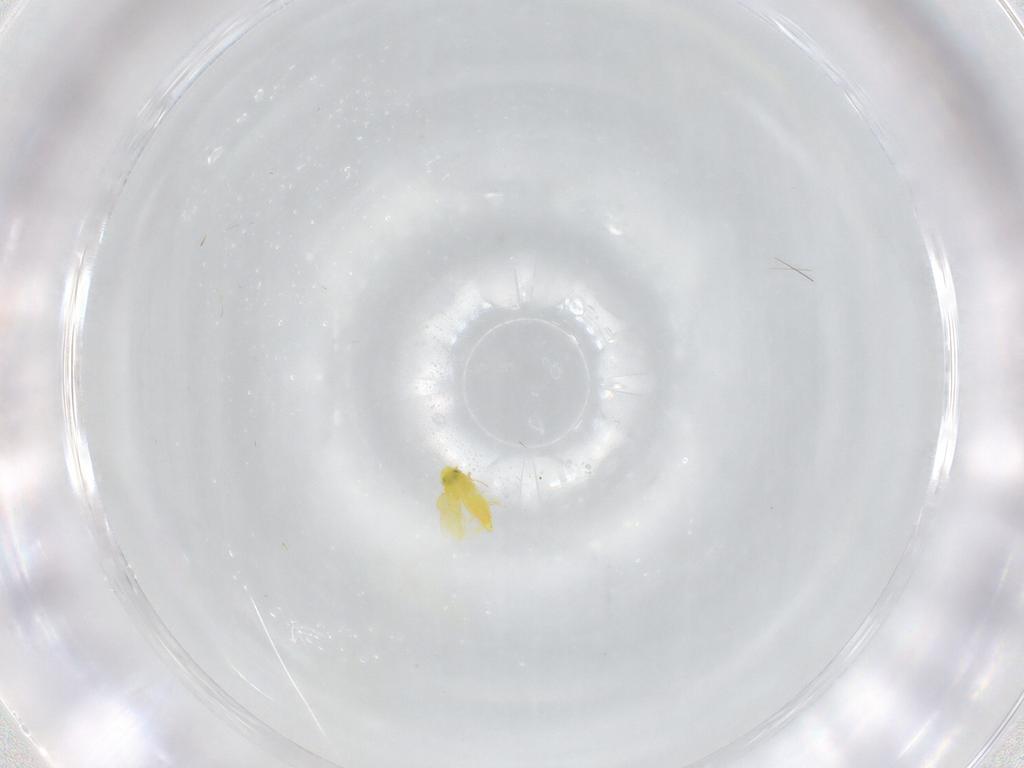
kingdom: Animalia
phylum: Arthropoda
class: Insecta
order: Hemiptera
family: Aleyrodidae
